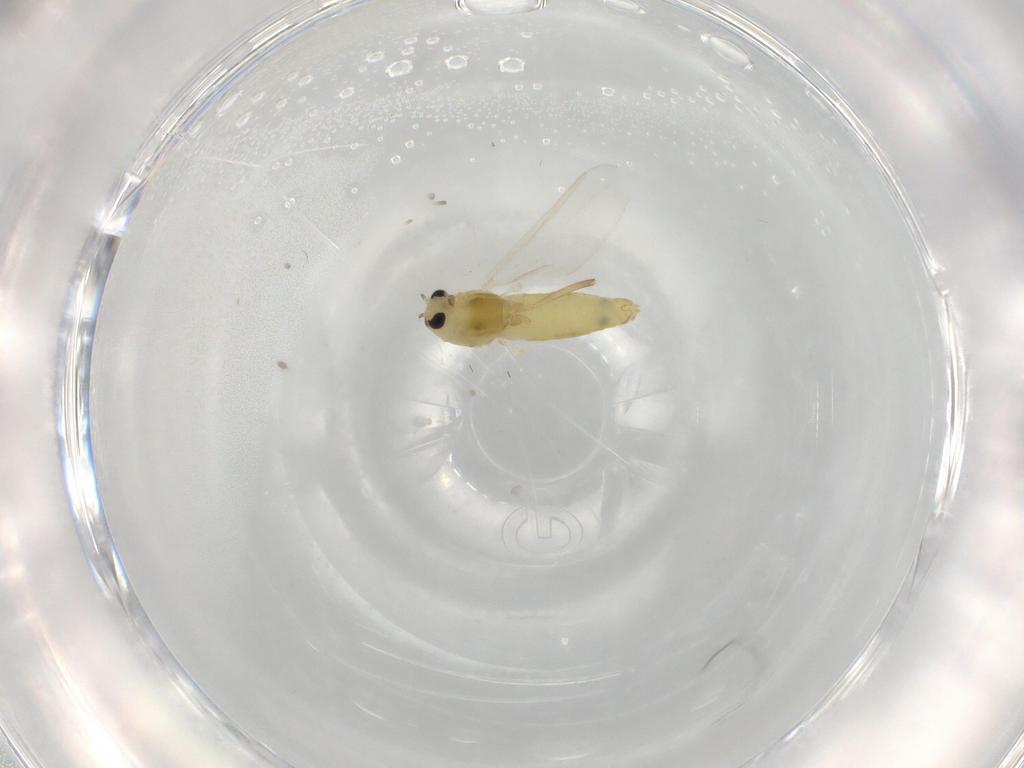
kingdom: Animalia
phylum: Arthropoda
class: Insecta
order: Diptera
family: Chironomidae
